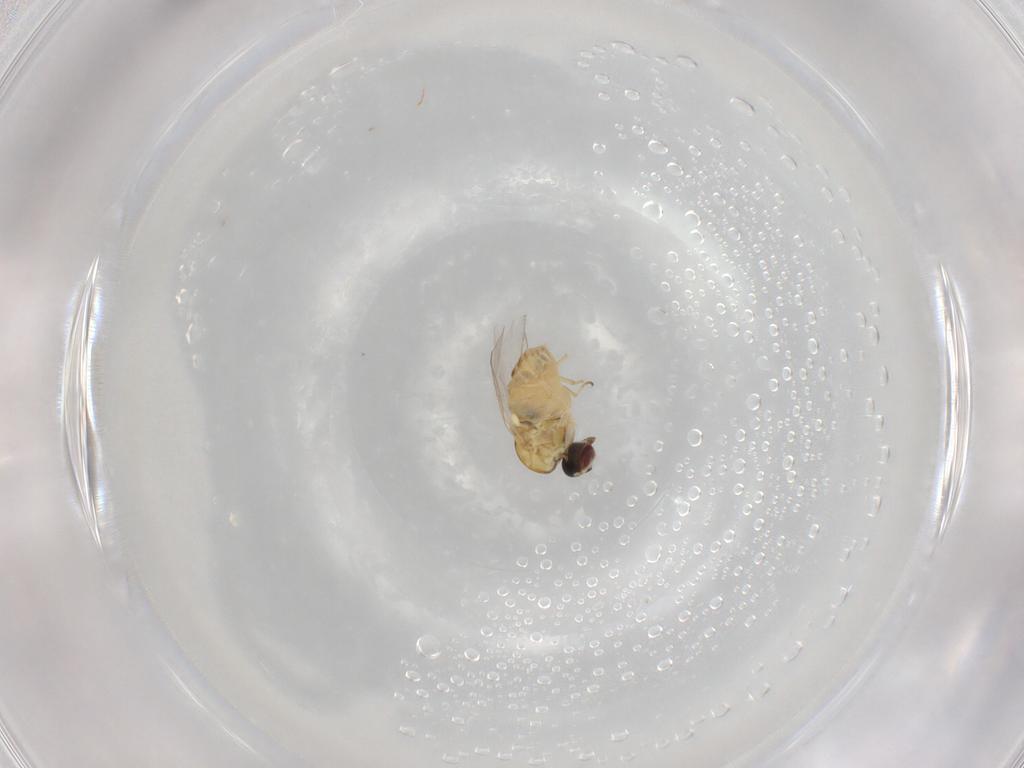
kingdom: Animalia
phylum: Arthropoda
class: Insecta
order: Diptera
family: Bombyliidae
